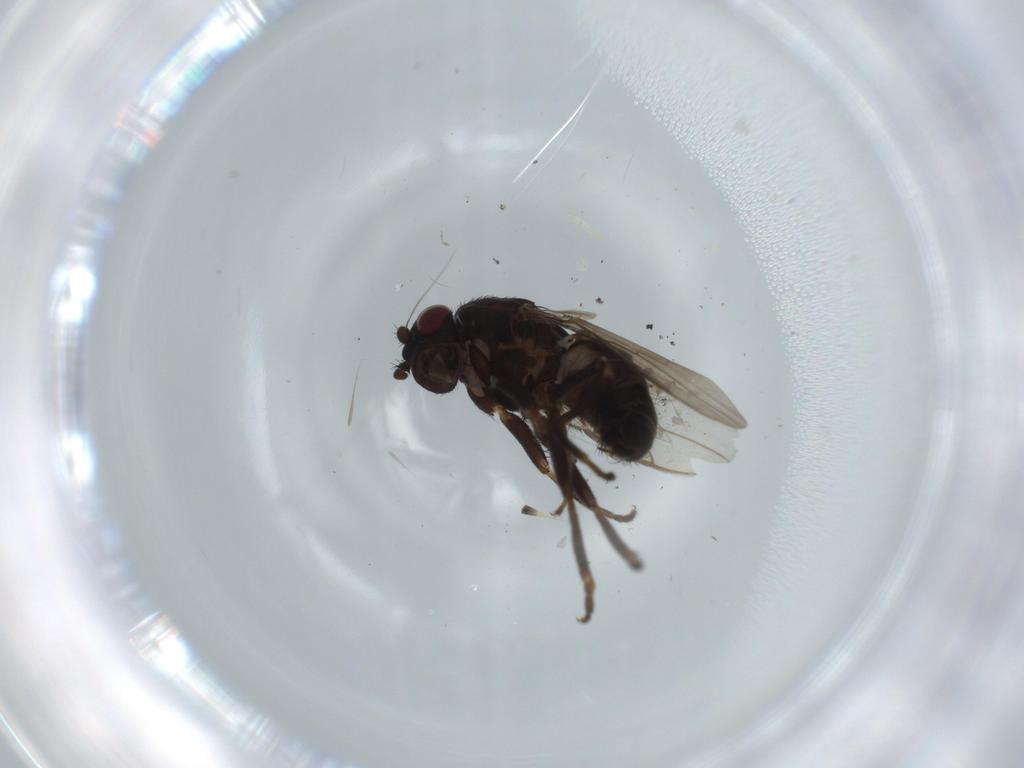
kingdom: Animalia
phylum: Arthropoda
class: Insecta
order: Diptera
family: Sphaeroceridae
